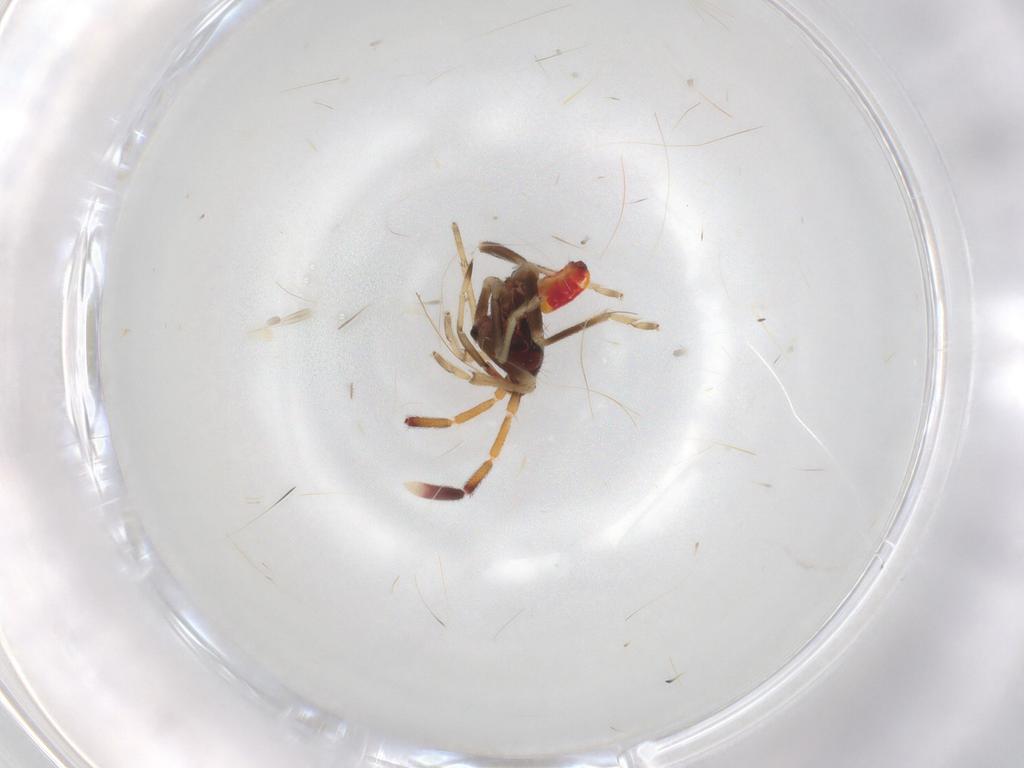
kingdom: Animalia
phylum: Arthropoda
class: Insecta
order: Hemiptera
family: Rhyparochromidae
